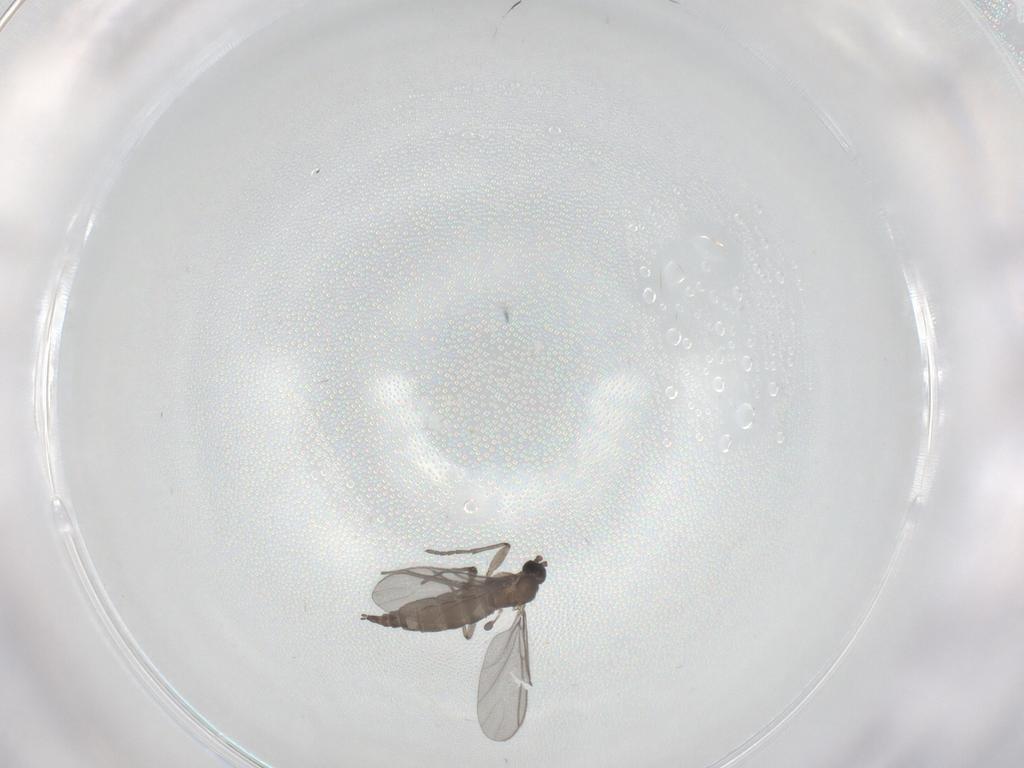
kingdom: Animalia
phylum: Arthropoda
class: Insecta
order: Diptera
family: Sciaridae
